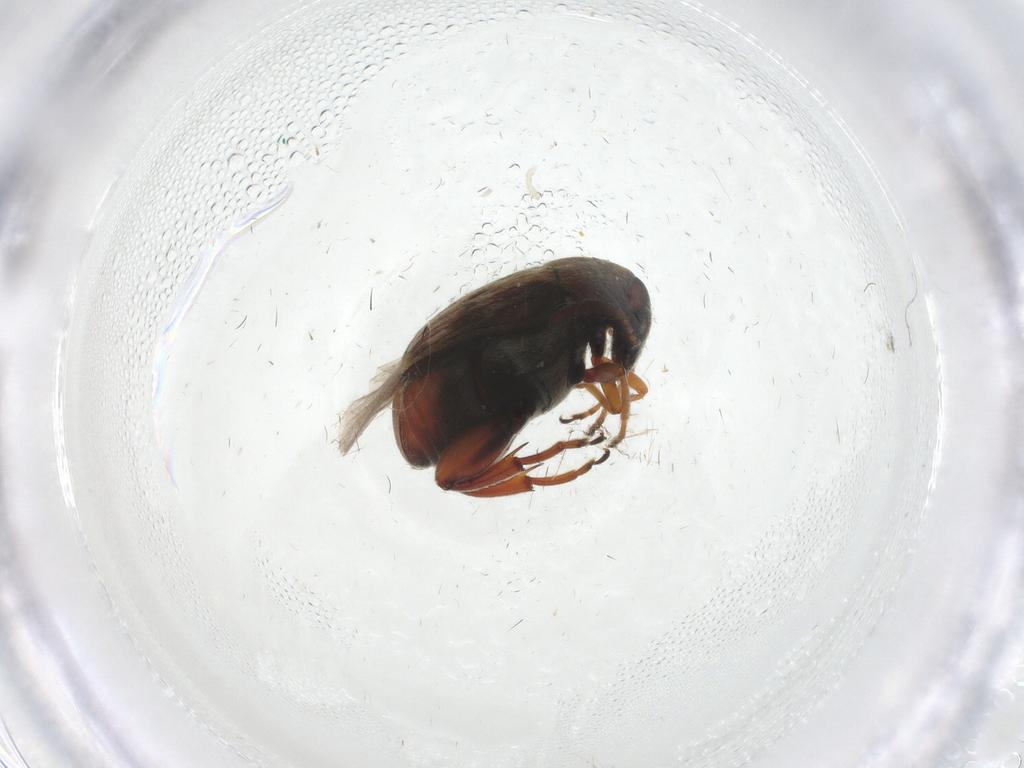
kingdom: Animalia
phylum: Arthropoda
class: Insecta
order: Coleoptera
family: Chrysomelidae
